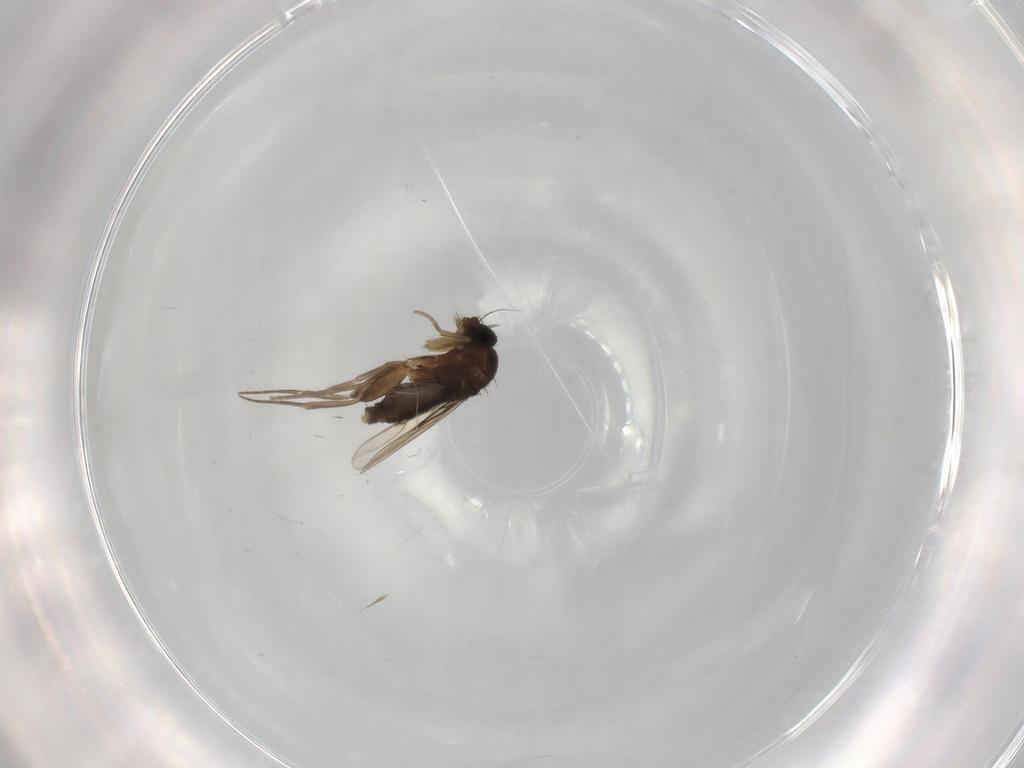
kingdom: Animalia
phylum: Arthropoda
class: Insecta
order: Diptera
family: Phoridae
